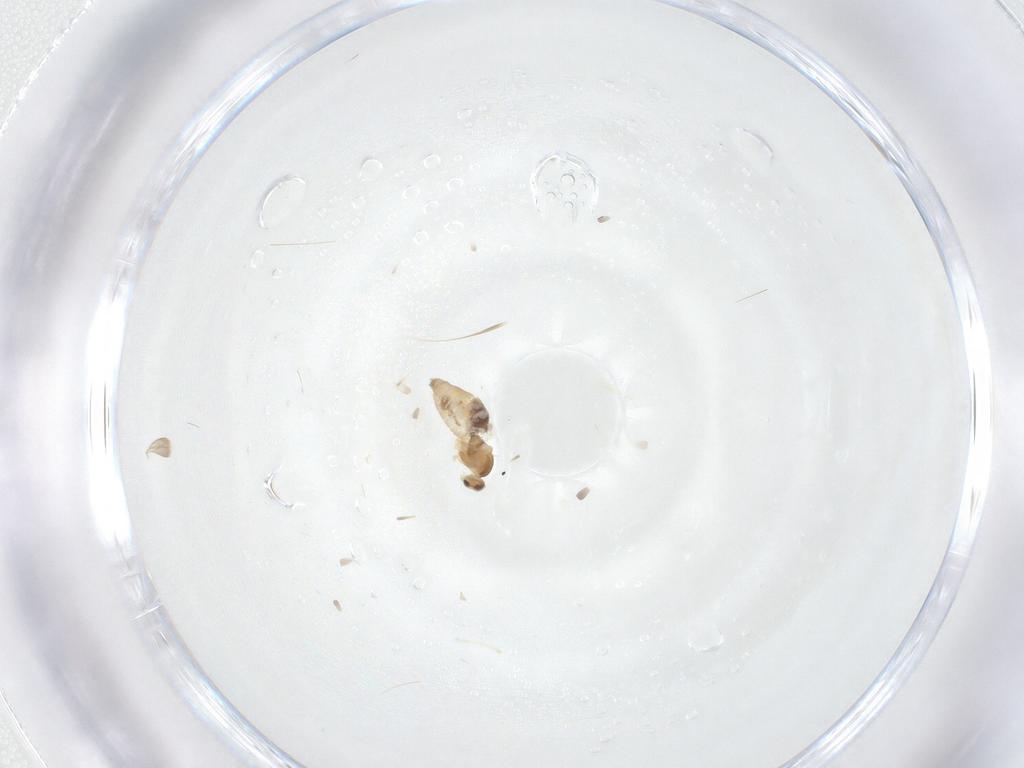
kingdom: Animalia
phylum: Arthropoda
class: Insecta
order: Diptera
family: Cecidomyiidae
